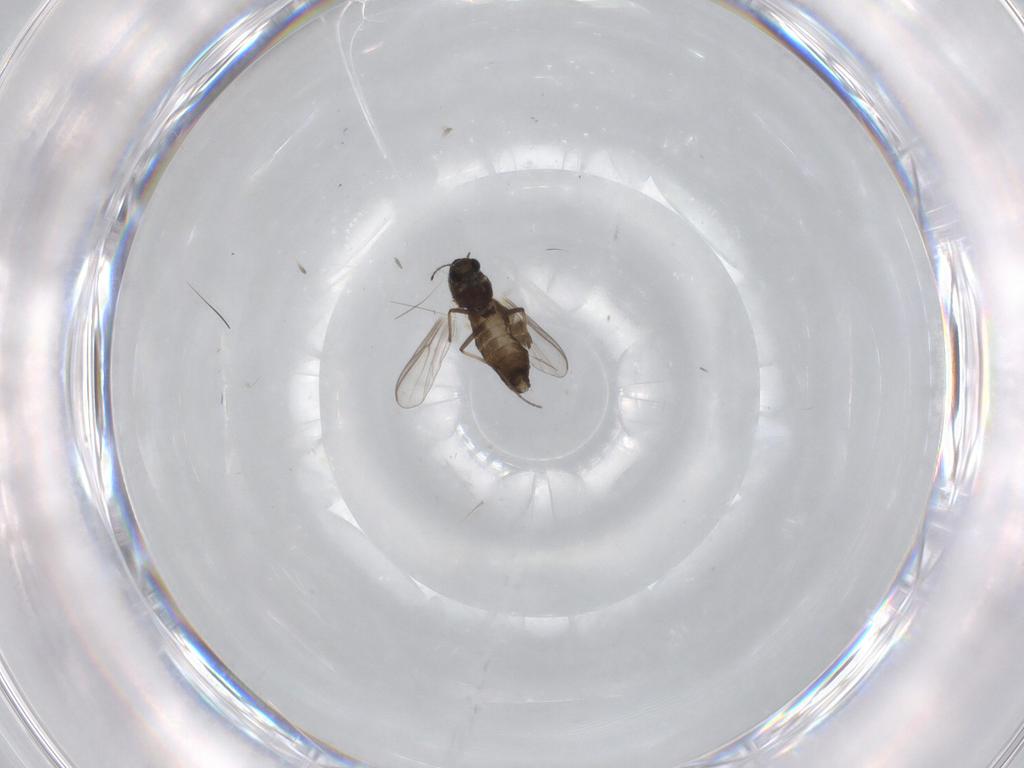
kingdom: Animalia
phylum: Arthropoda
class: Insecta
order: Diptera
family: Chironomidae
